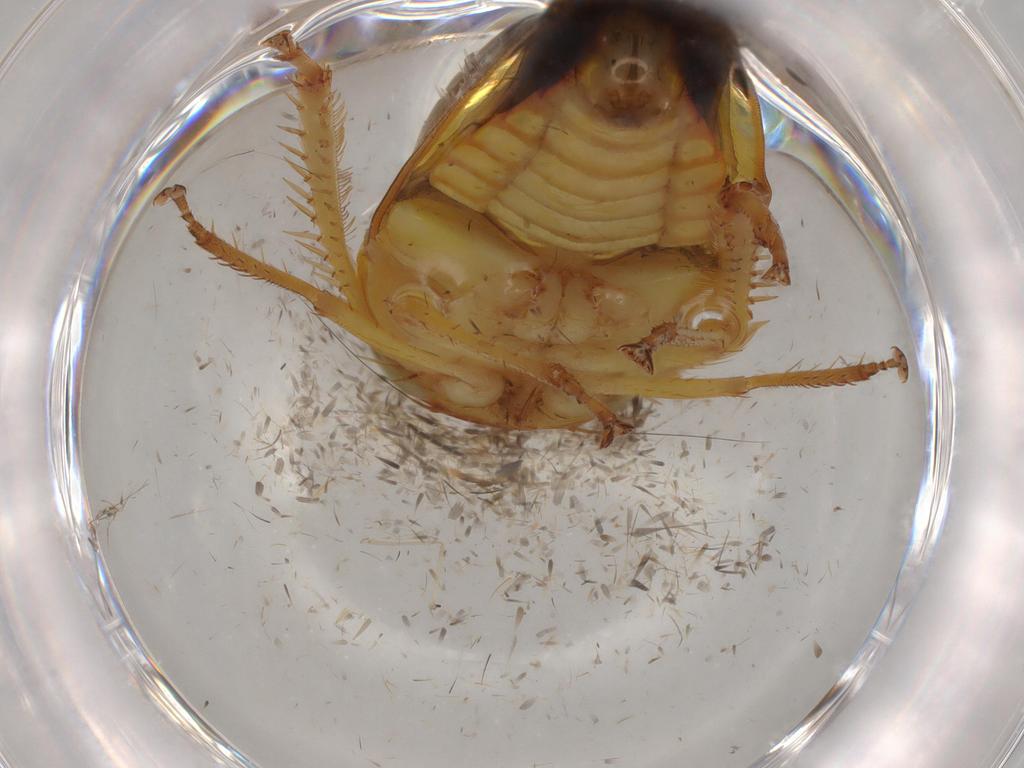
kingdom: Animalia
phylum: Arthropoda
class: Insecta
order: Hemiptera
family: Cicadellidae
